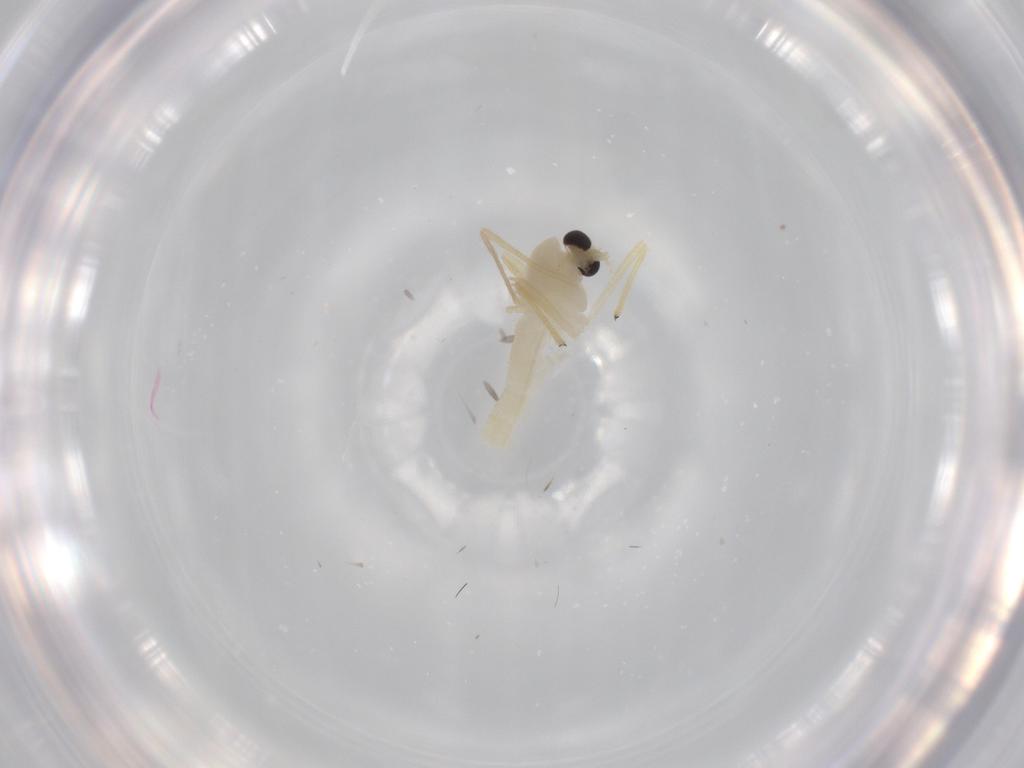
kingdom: Animalia
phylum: Arthropoda
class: Insecta
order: Diptera
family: Chironomidae
